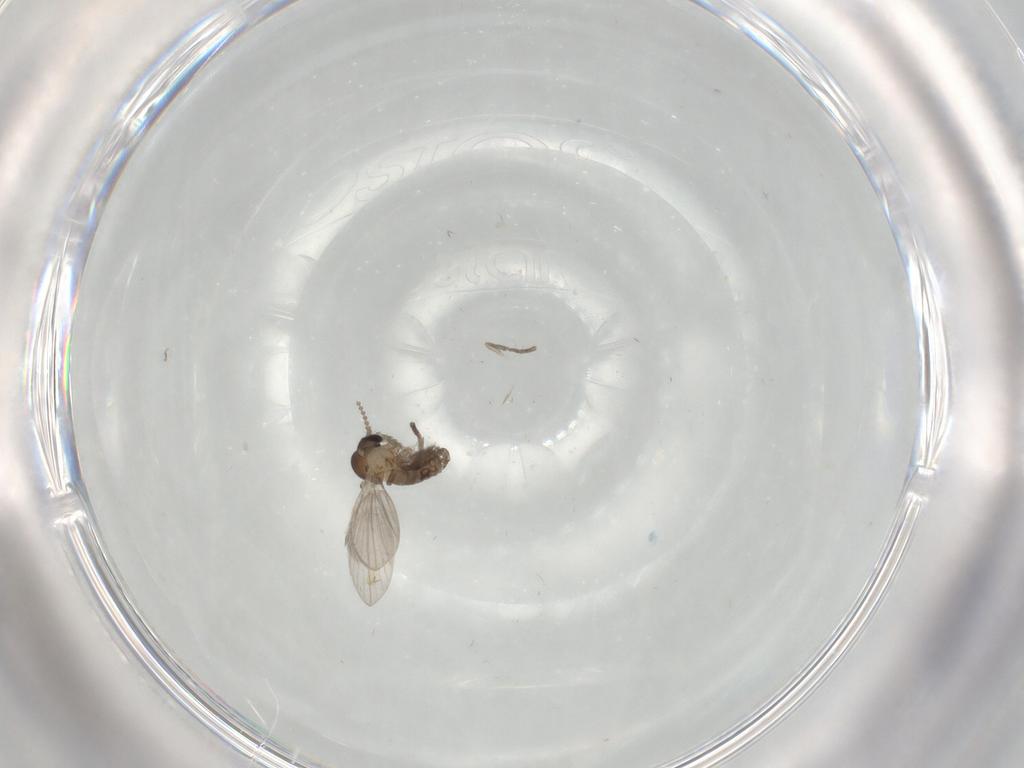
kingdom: Animalia
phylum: Arthropoda
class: Insecta
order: Diptera
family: Psychodidae
